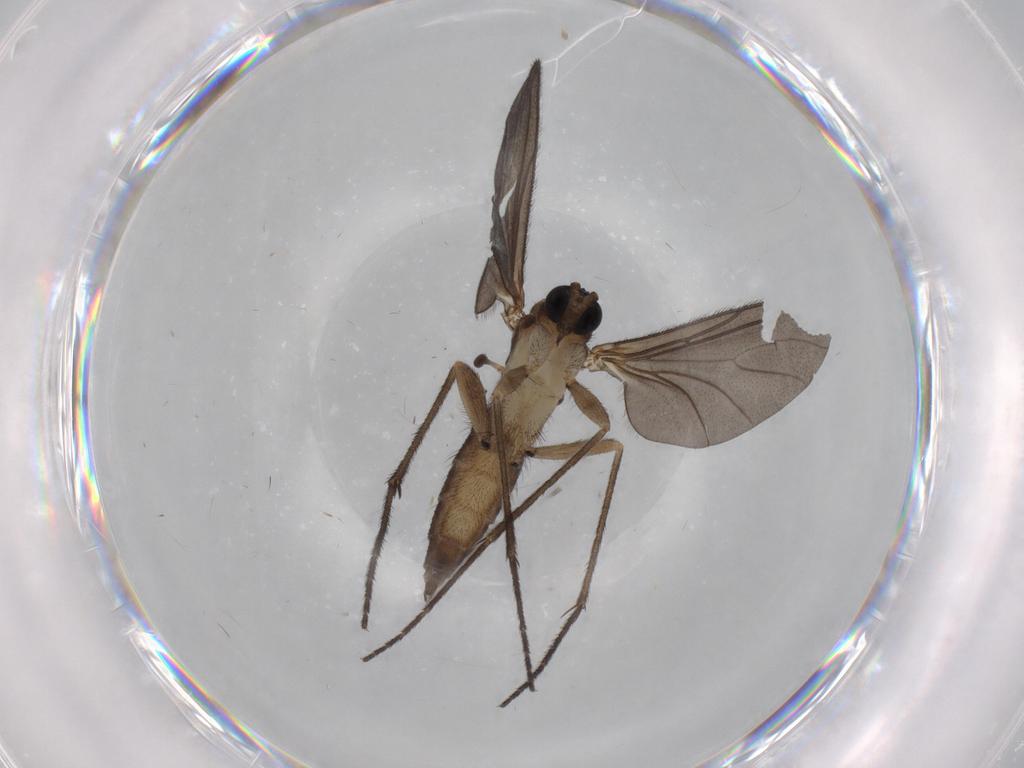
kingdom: Animalia
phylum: Arthropoda
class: Insecta
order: Diptera
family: Sciaridae
